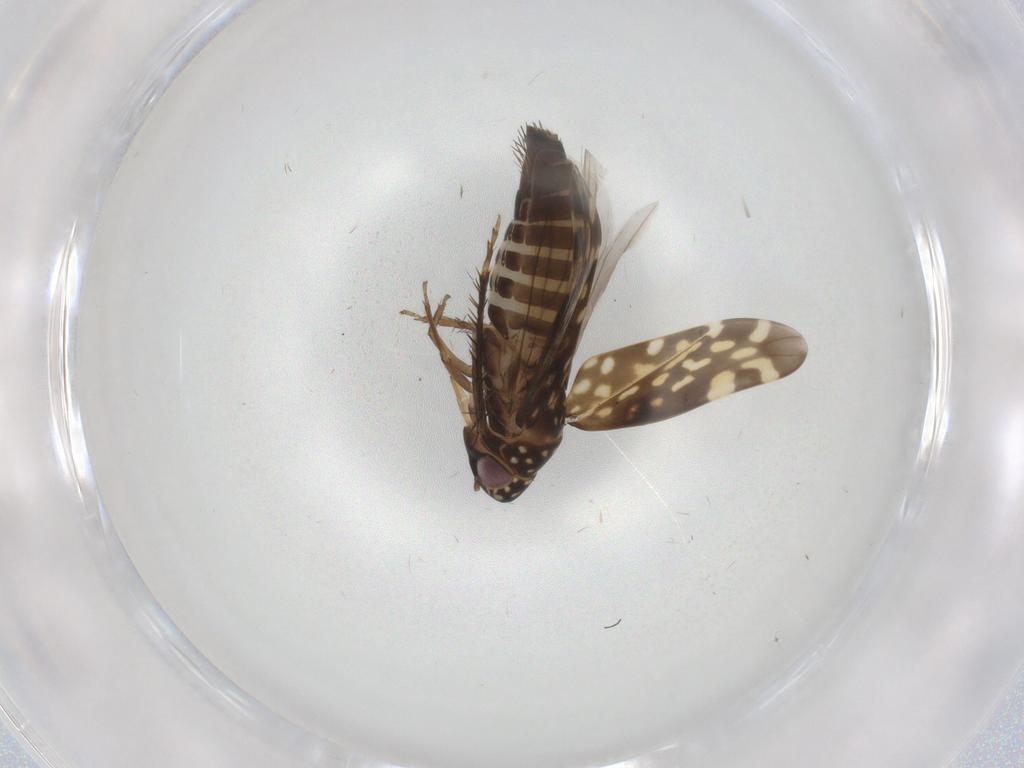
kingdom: Animalia
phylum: Arthropoda
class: Insecta
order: Hemiptera
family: Cicadellidae
